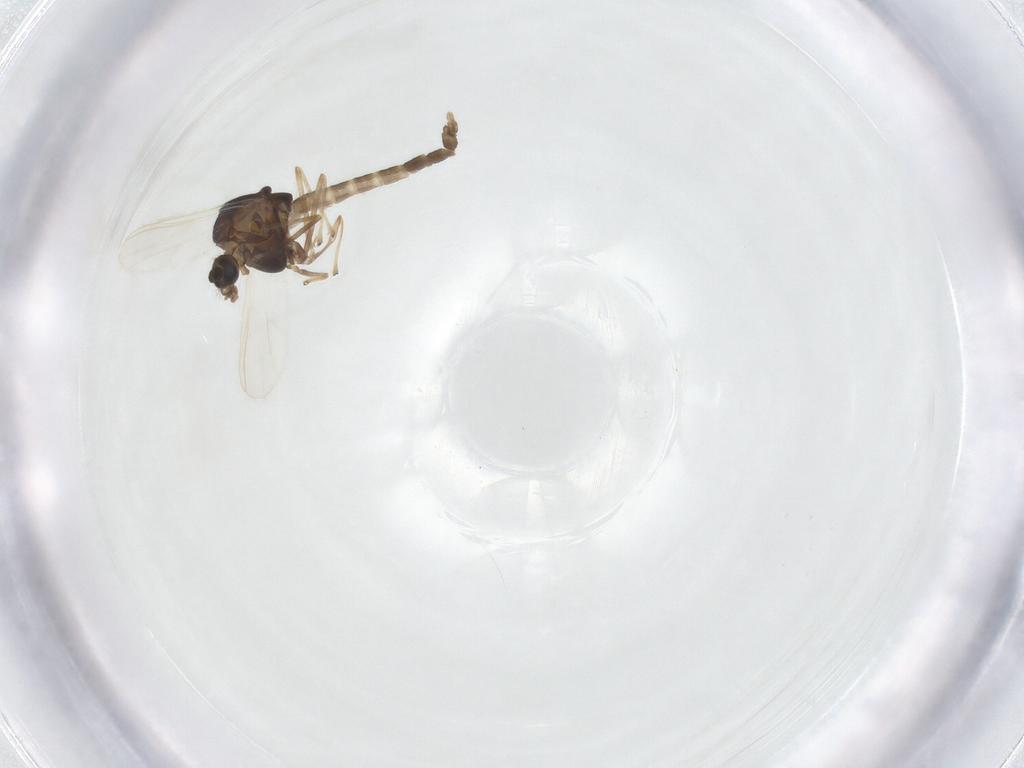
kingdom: Animalia
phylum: Arthropoda
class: Insecta
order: Diptera
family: Chironomidae
